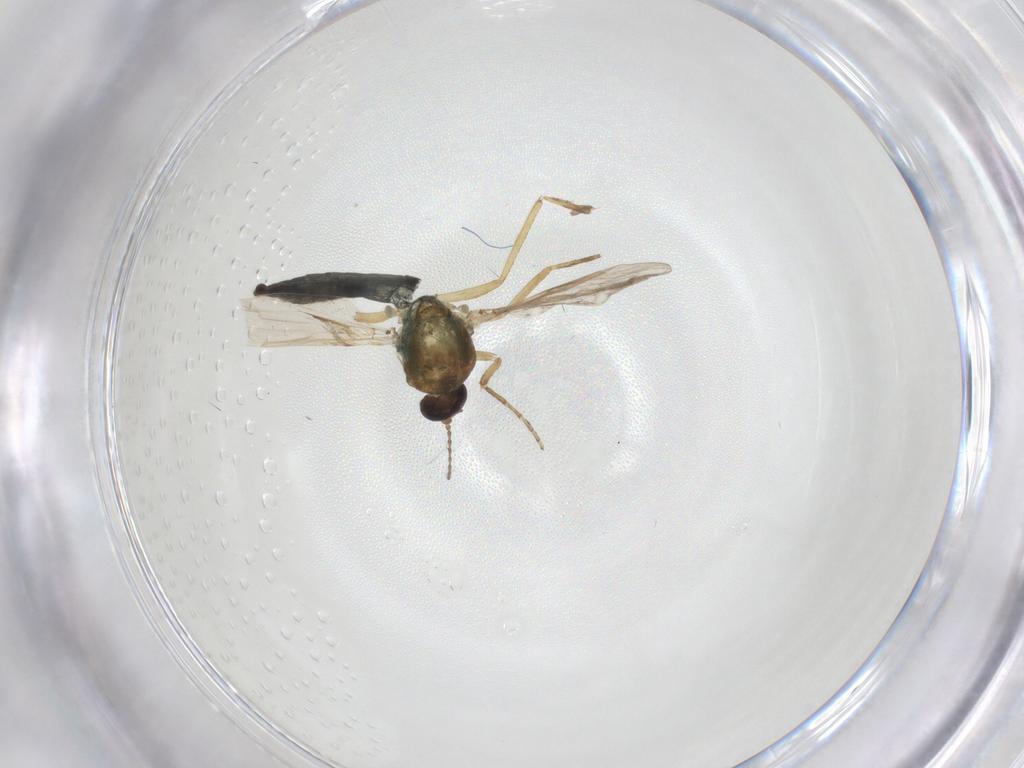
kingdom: Animalia
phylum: Arthropoda
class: Insecta
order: Diptera
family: Ceratopogonidae
